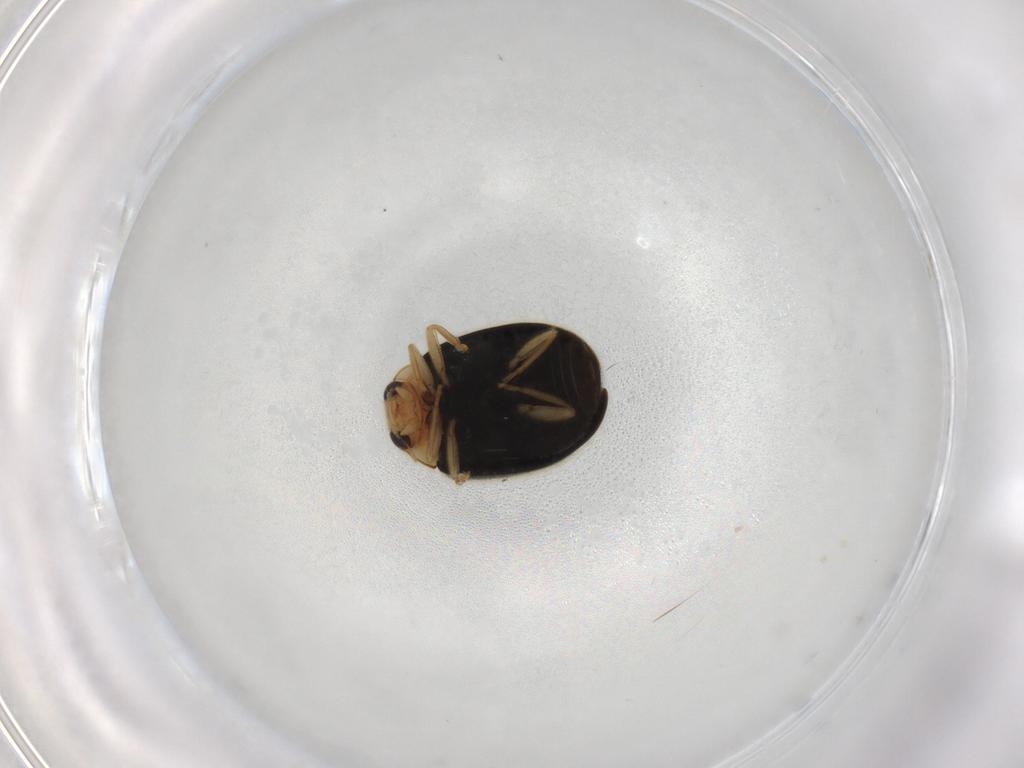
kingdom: Animalia
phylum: Arthropoda
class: Insecta
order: Coleoptera
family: Coccinellidae
